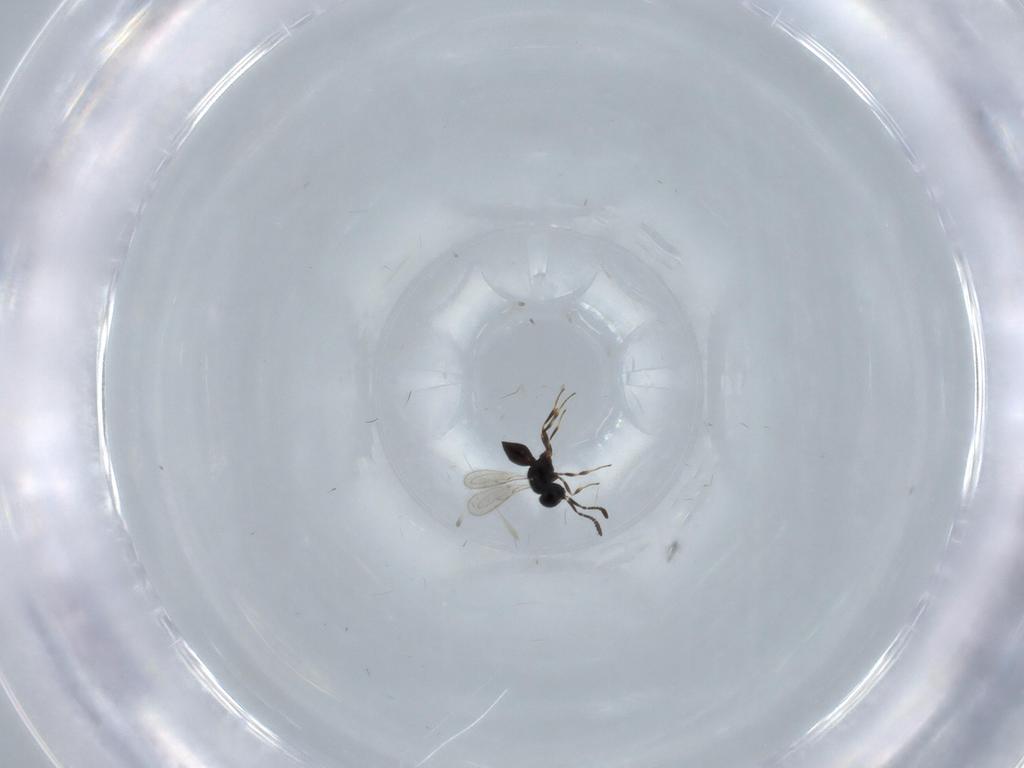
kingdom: Animalia
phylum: Arthropoda
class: Insecta
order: Hymenoptera
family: Scelionidae
